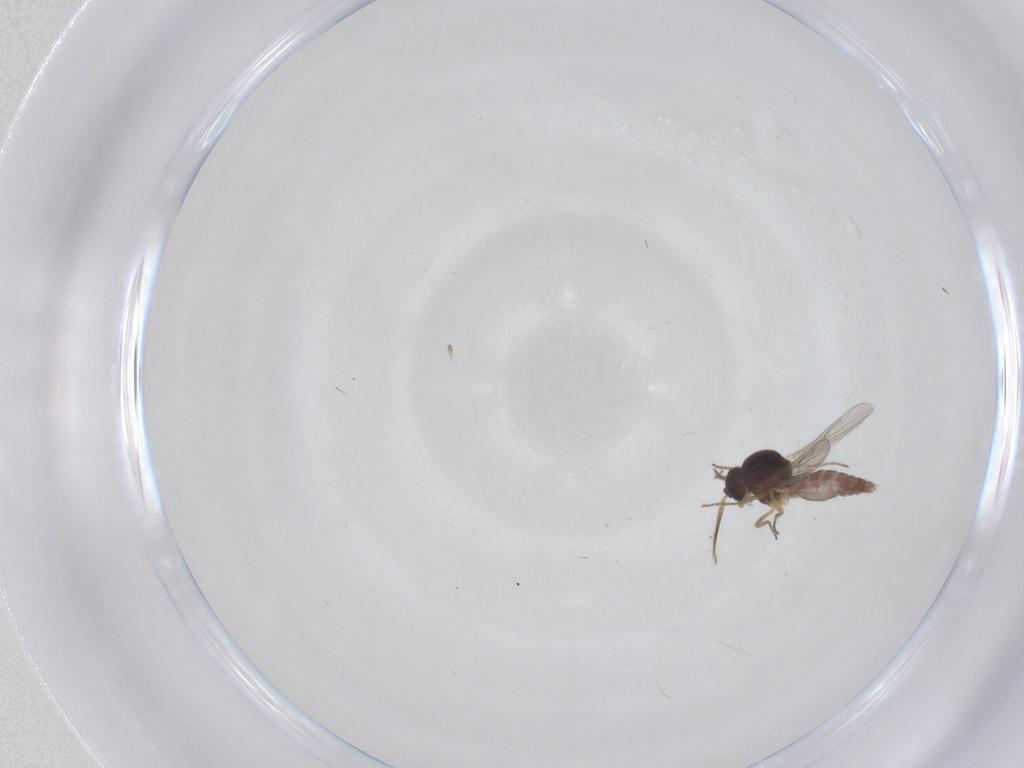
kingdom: Animalia
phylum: Arthropoda
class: Insecta
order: Diptera
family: Ceratopogonidae
